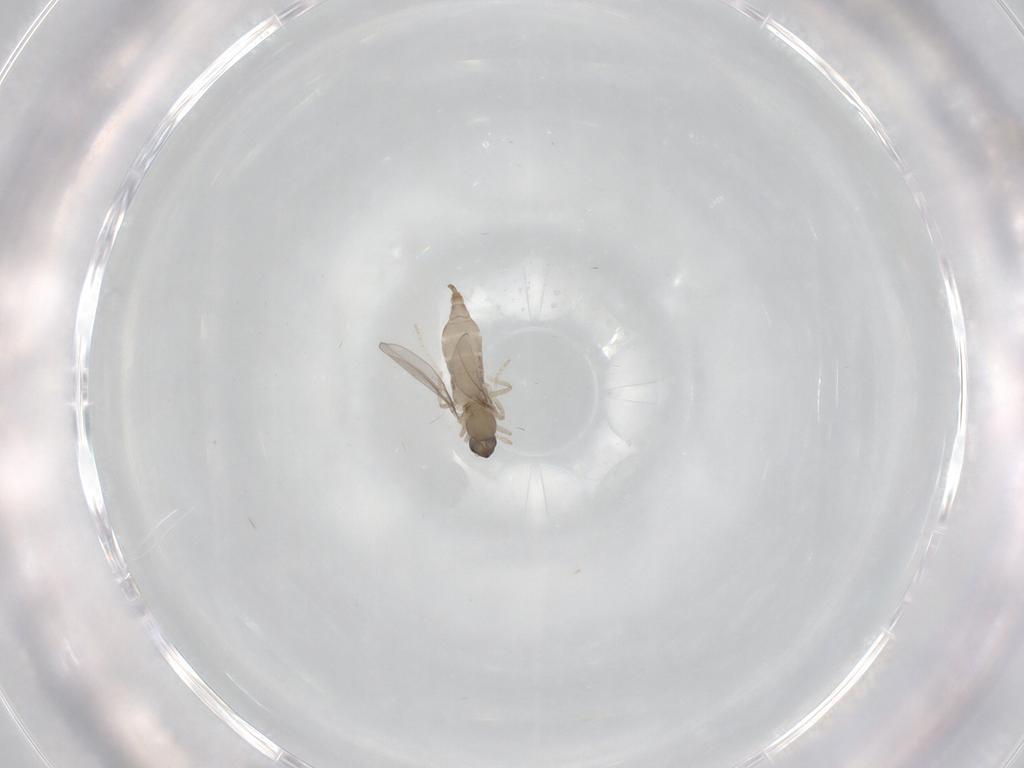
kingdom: Animalia
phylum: Arthropoda
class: Insecta
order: Diptera
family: Cecidomyiidae
